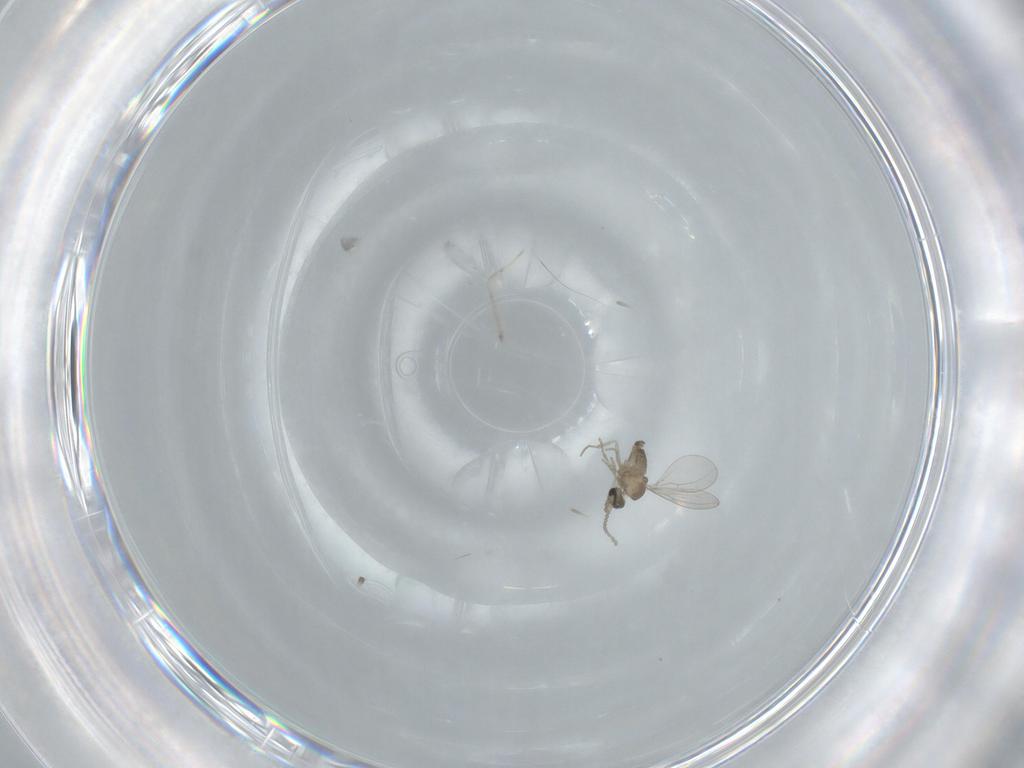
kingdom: Animalia
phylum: Arthropoda
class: Insecta
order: Diptera
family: Cecidomyiidae
